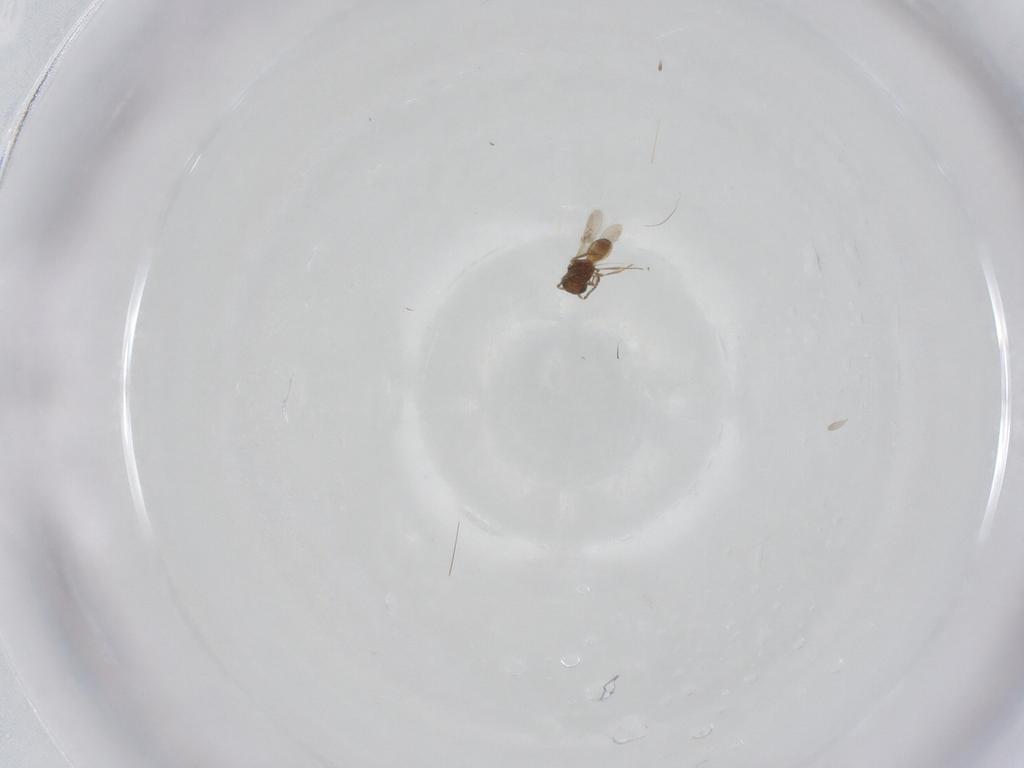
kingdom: Animalia
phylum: Arthropoda
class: Insecta
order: Hymenoptera
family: Scelionidae
